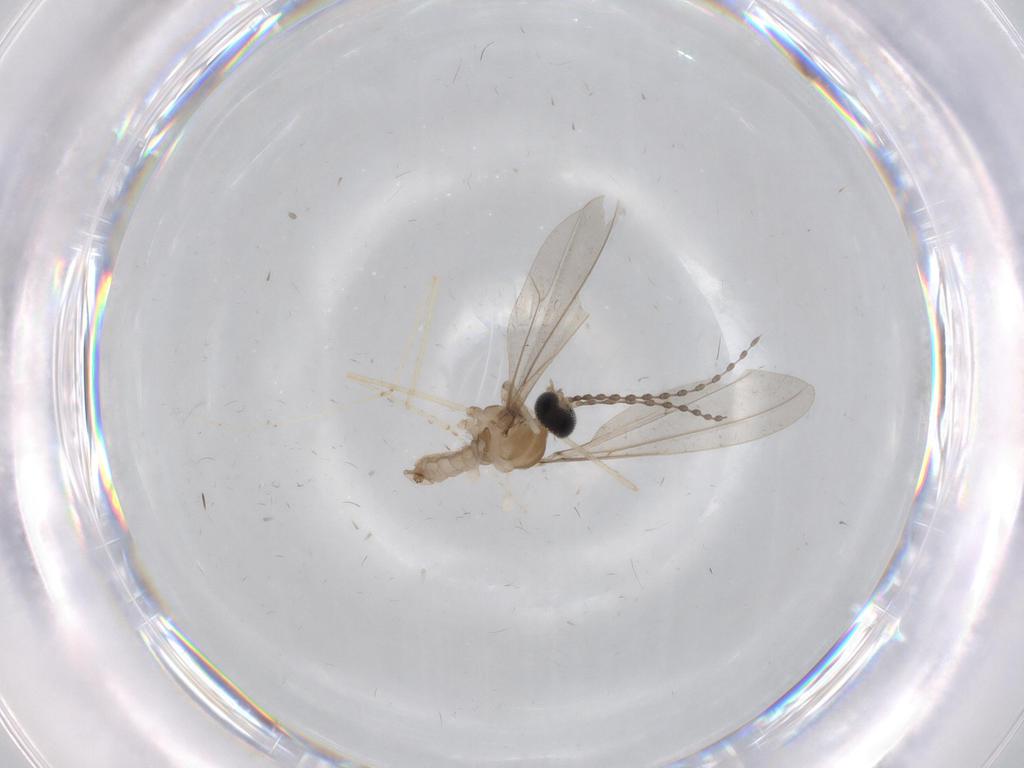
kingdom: Animalia
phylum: Arthropoda
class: Insecta
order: Diptera
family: Phoridae
